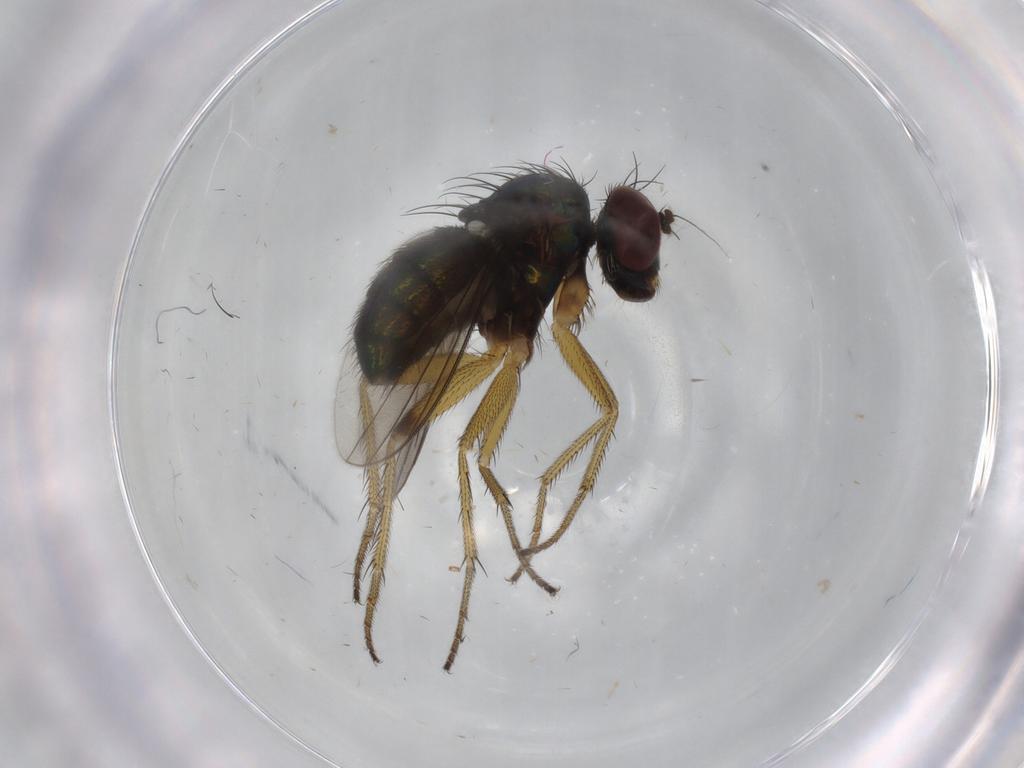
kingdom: Animalia
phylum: Arthropoda
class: Insecta
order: Diptera
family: Dolichopodidae
